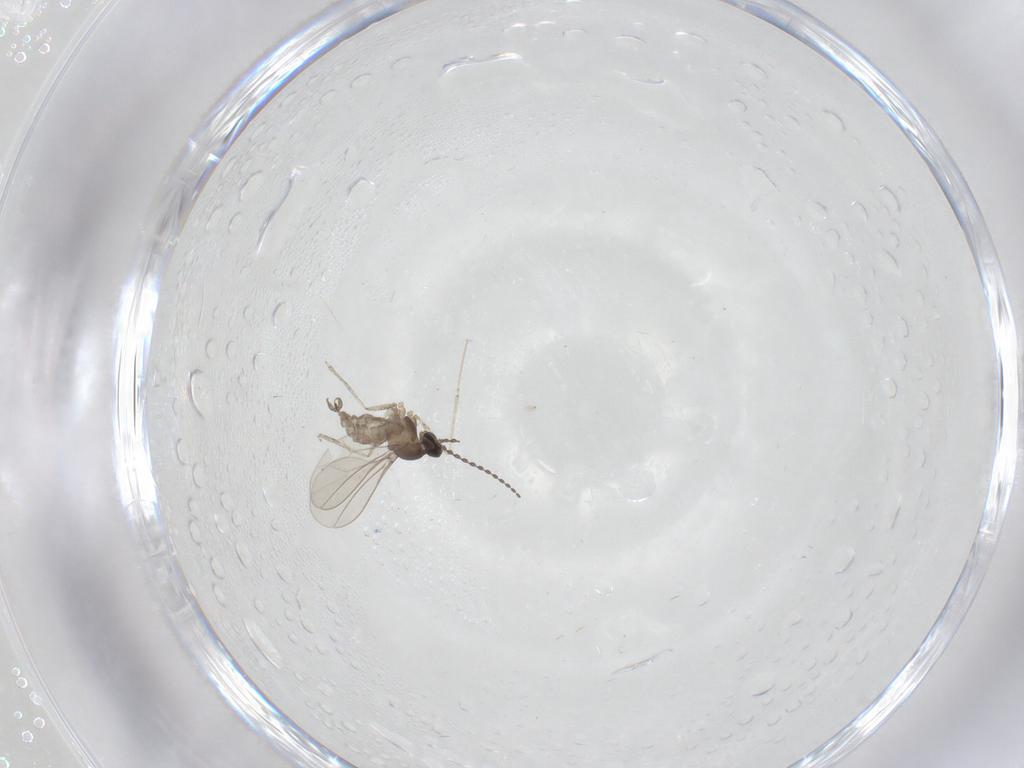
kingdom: Animalia
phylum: Arthropoda
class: Insecta
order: Diptera
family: Cecidomyiidae
